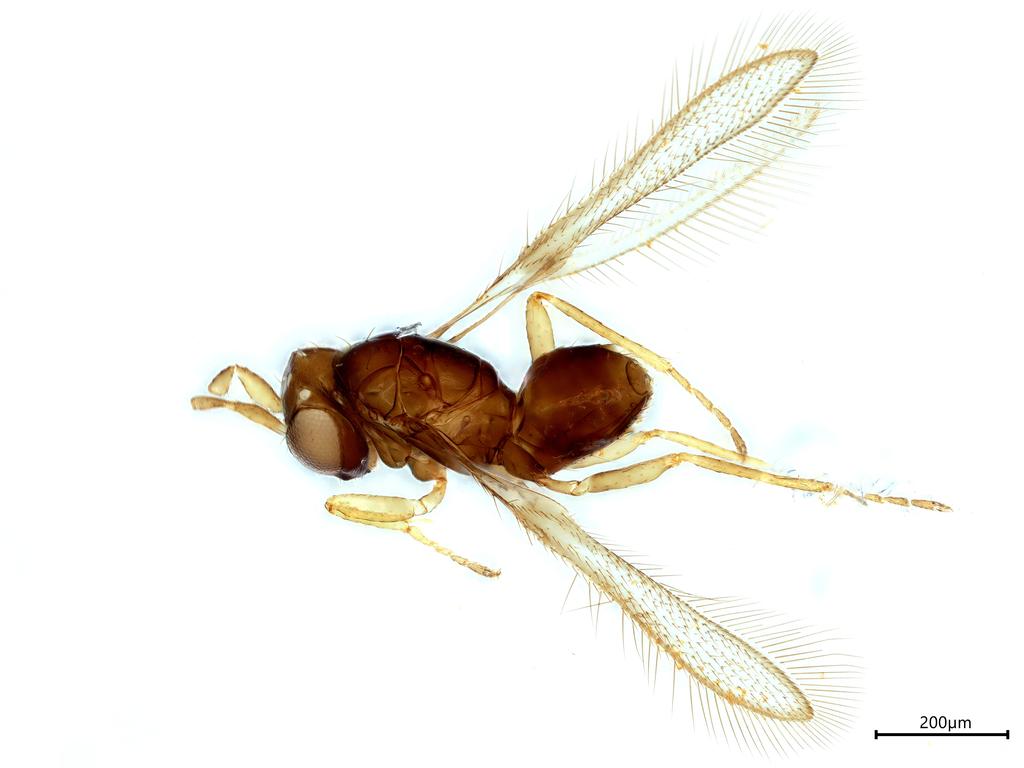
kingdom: Animalia
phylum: Arthropoda
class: Insecta
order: Hymenoptera
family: Mymaridae
